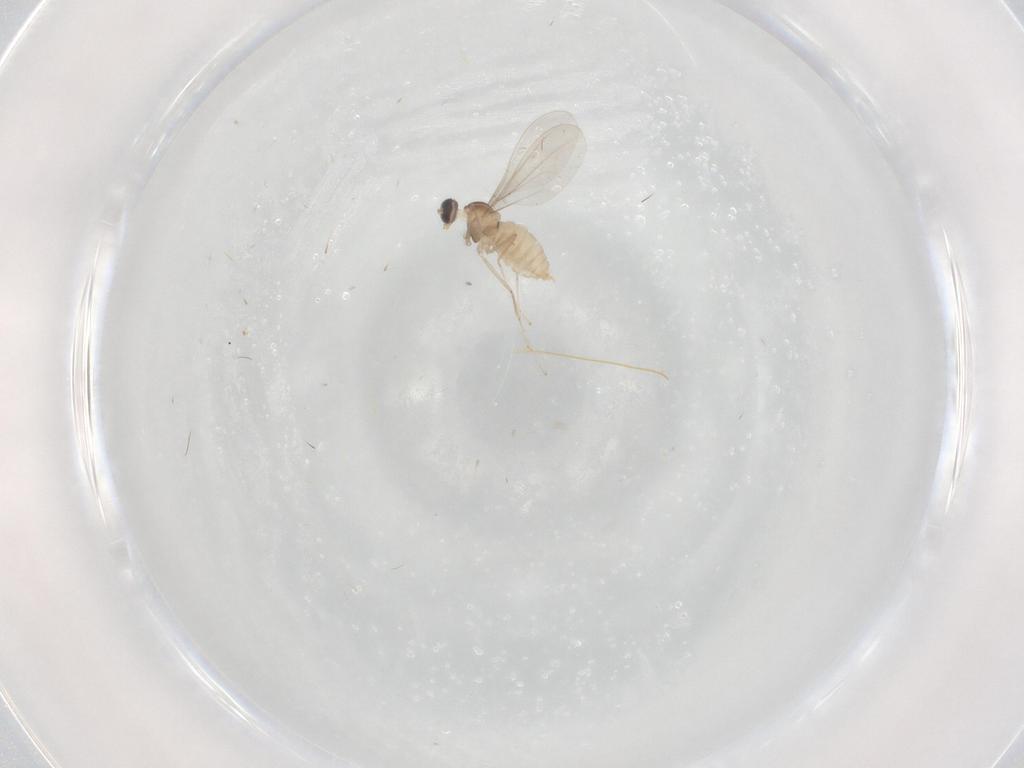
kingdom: Animalia
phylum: Arthropoda
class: Insecta
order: Diptera
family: Cecidomyiidae
